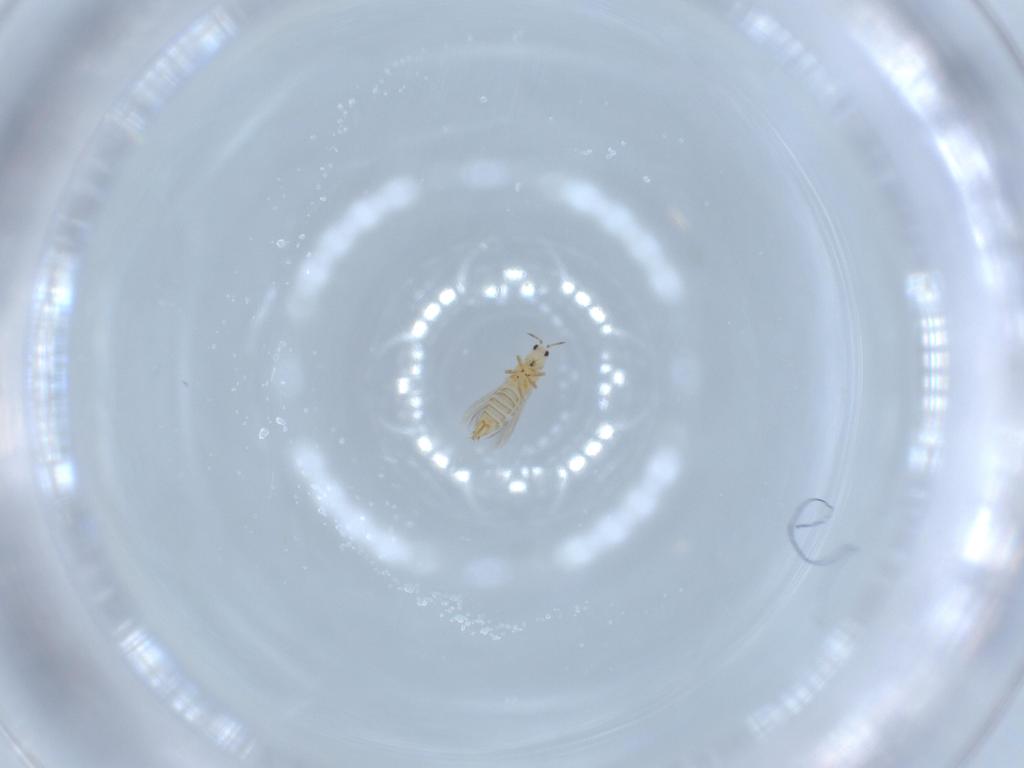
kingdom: Animalia
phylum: Arthropoda
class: Insecta
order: Thysanoptera
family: Thripidae
